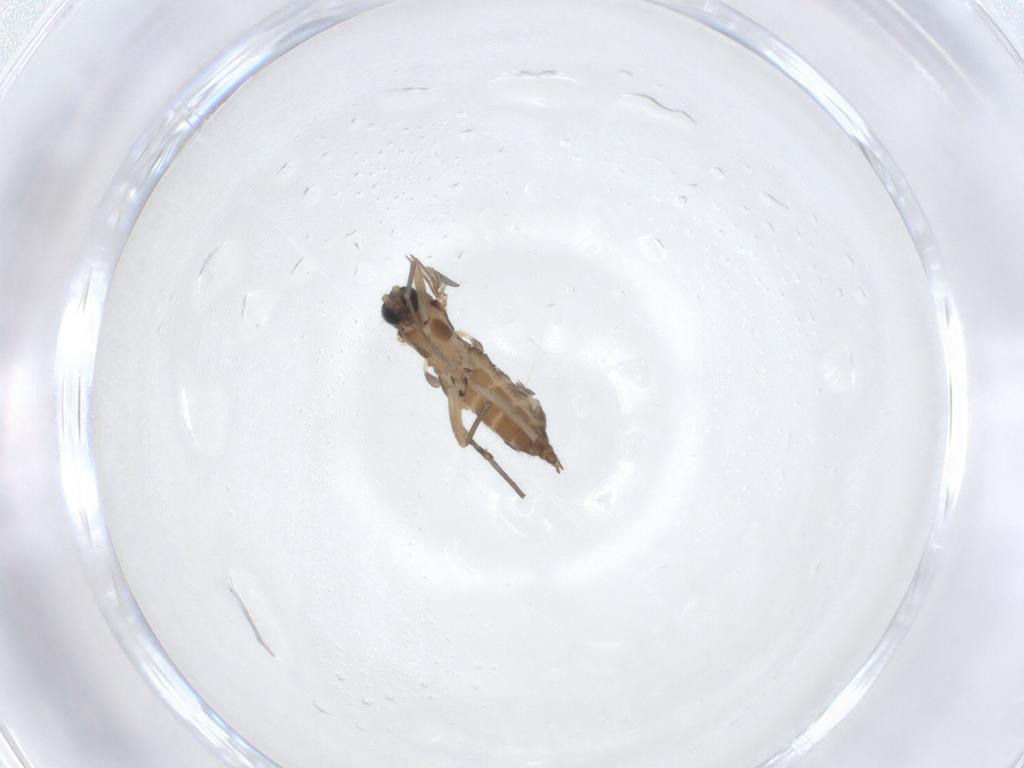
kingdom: Animalia
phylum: Arthropoda
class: Insecta
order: Diptera
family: Sciaridae
